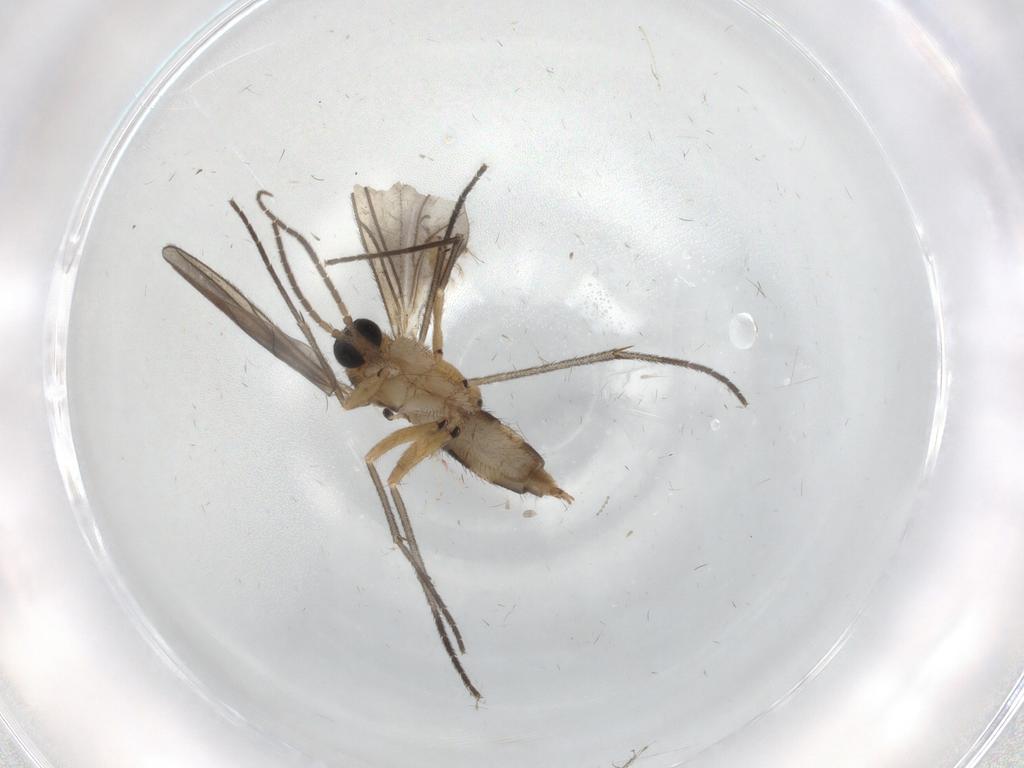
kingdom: Animalia
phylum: Arthropoda
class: Insecta
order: Diptera
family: Sciaridae
